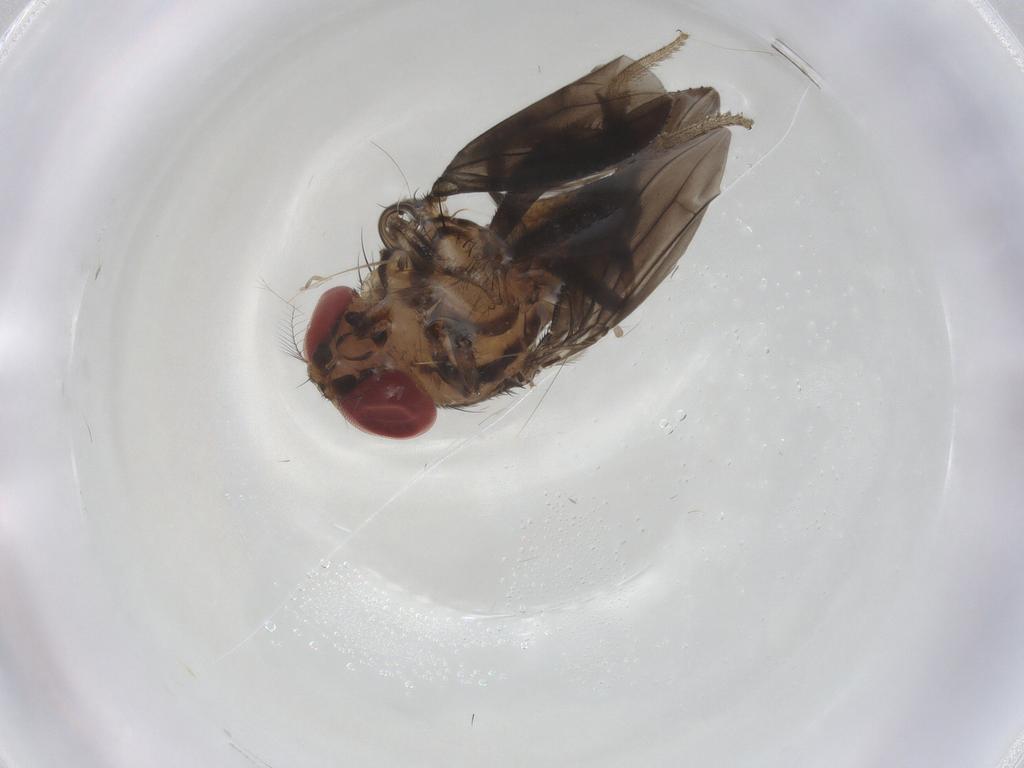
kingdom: Animalia
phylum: Arthropoda
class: Insecta
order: Diptera
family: Drosophilidae
